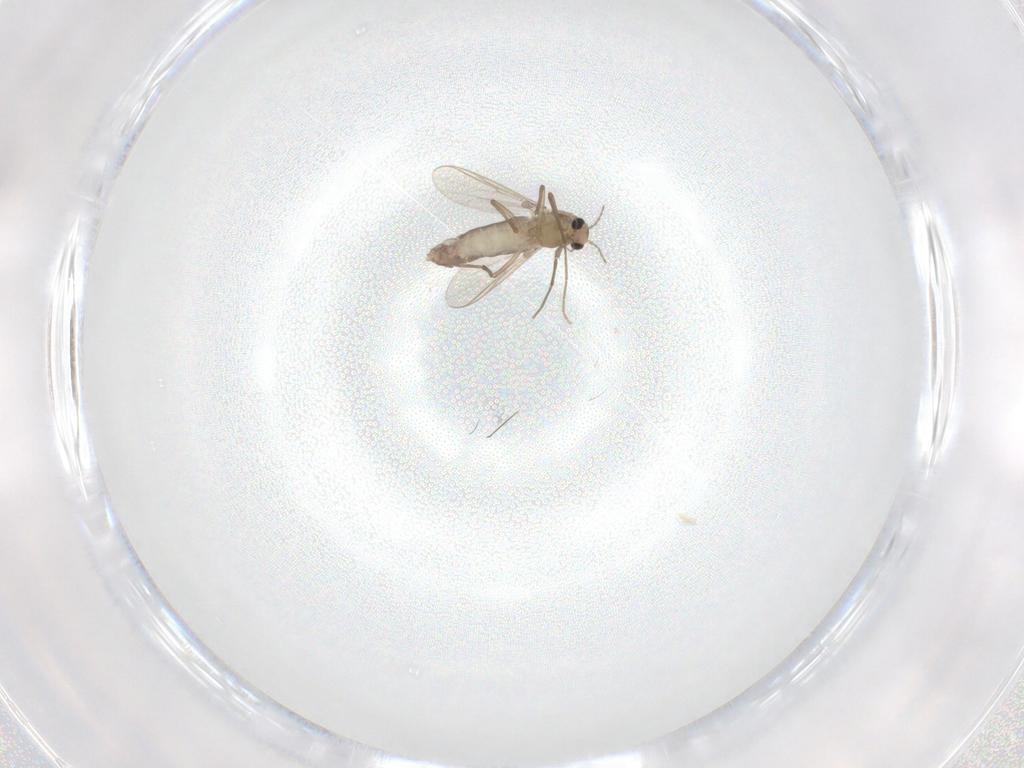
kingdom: Animalia
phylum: Arthropoda
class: Insecta
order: Diptera
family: Chironomidae
